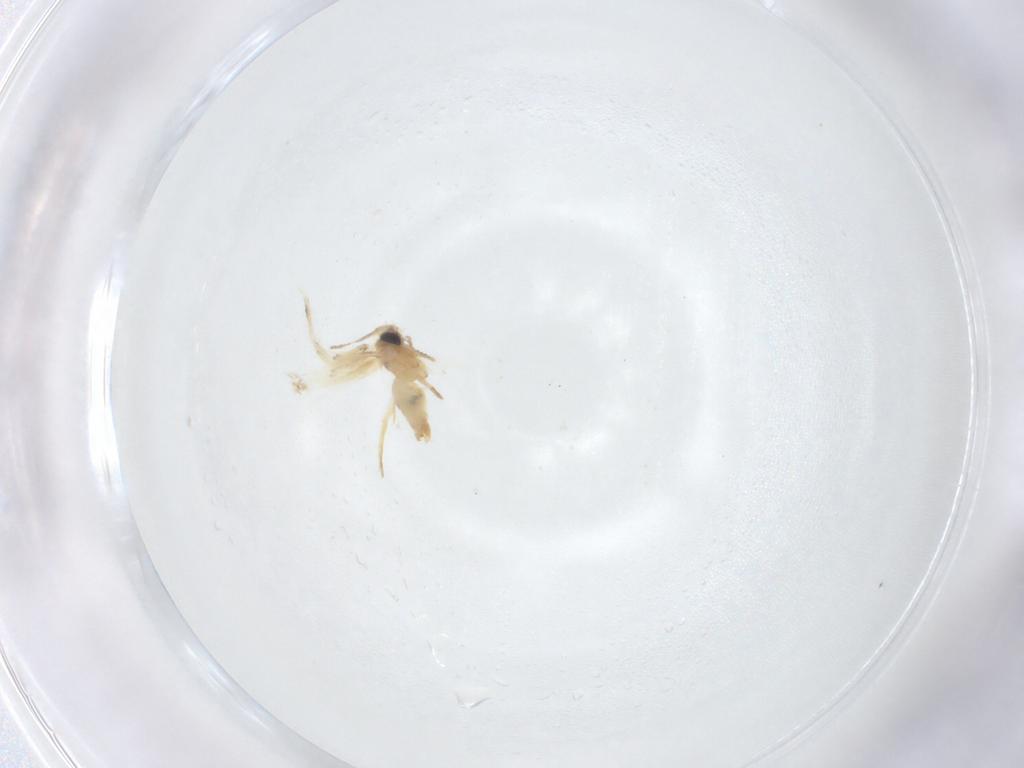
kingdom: Animalia
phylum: Arthropoda
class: Insecta
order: Lepidoptera
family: Crambidae
